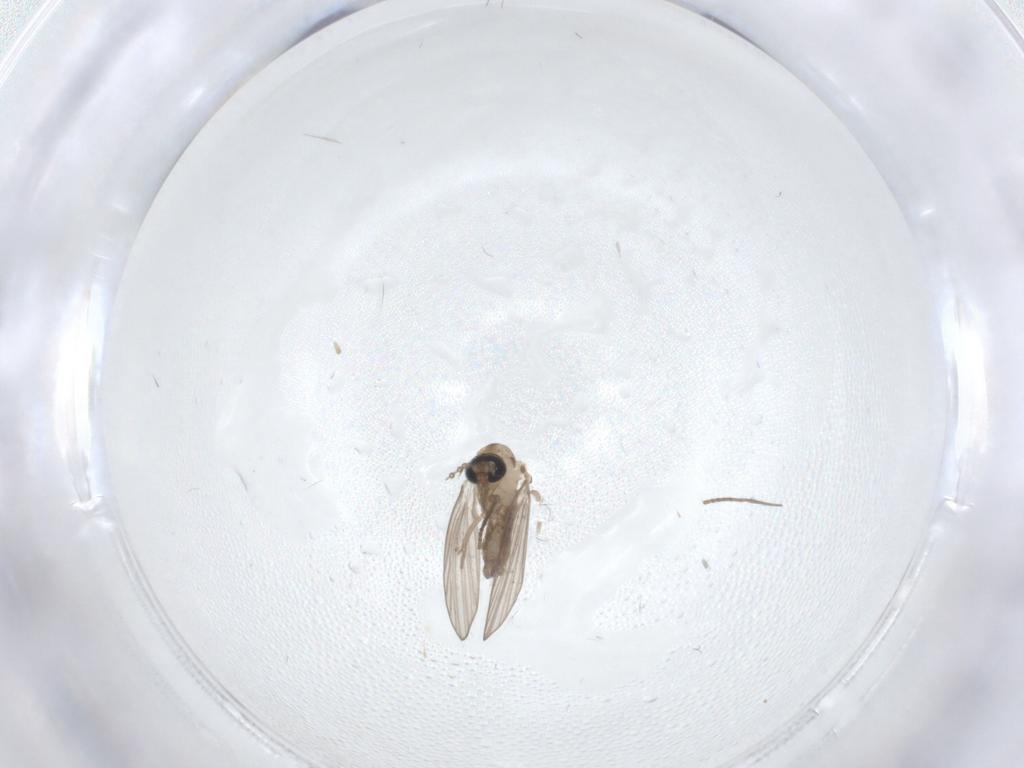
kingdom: Animalia
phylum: Arthropoda
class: Insecta
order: Diptera
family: Psychodidae
